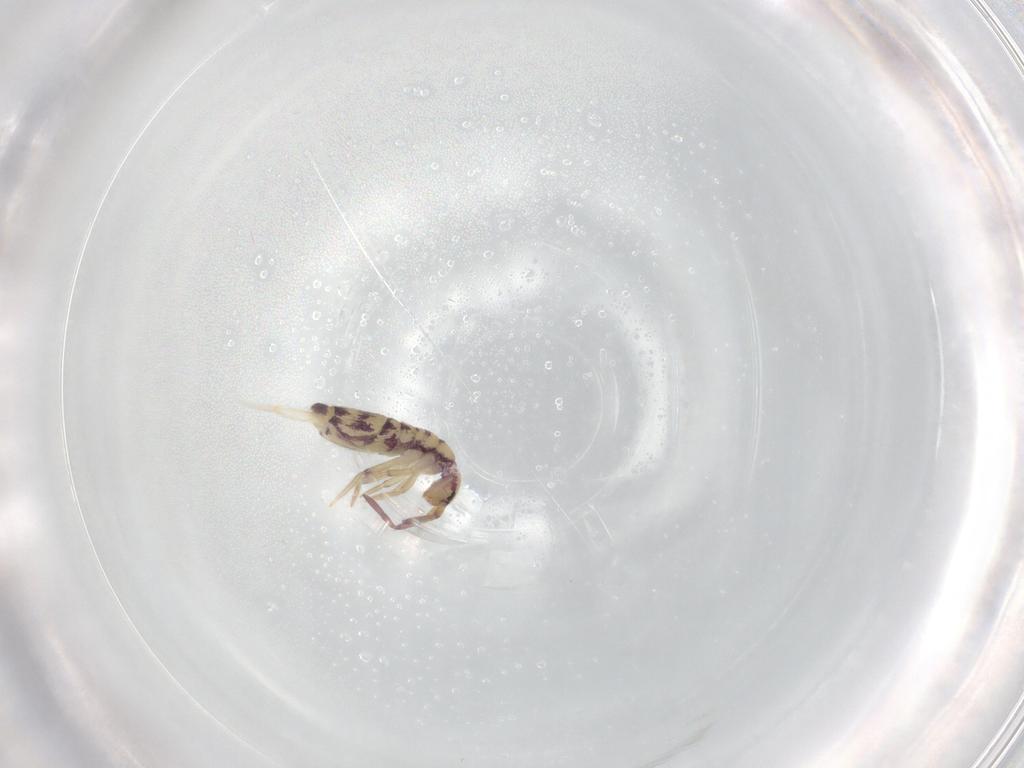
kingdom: Animalia
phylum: Arthropoda
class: Collembola
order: Entomobryomorpha
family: Entomobryidae
